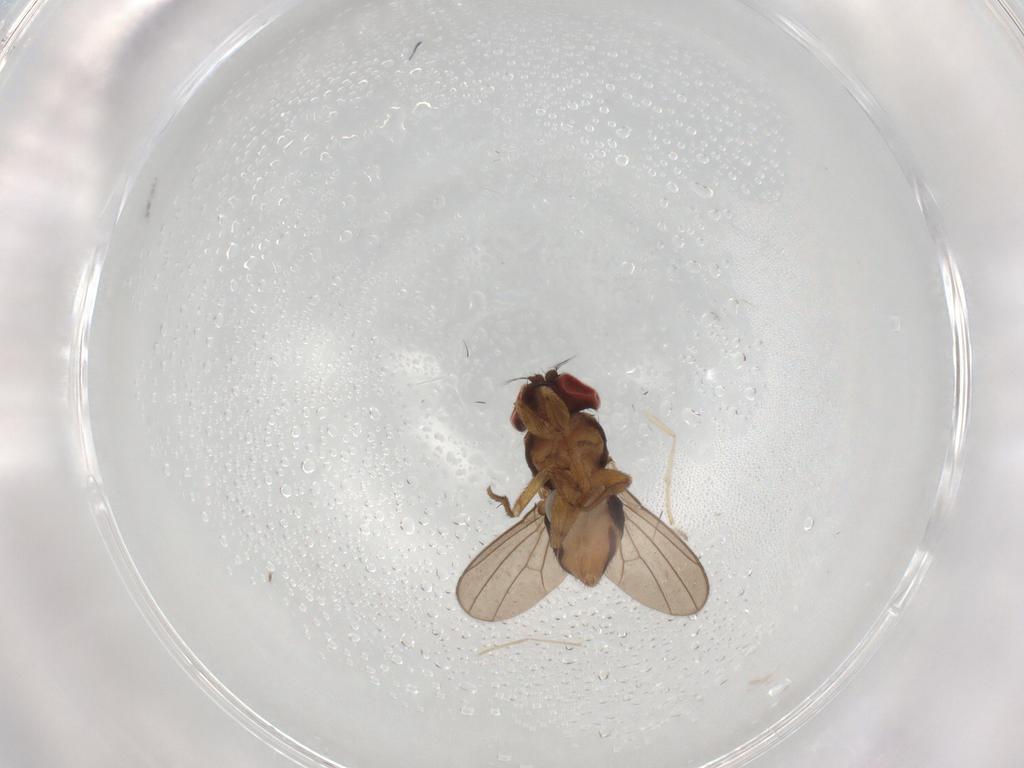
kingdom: Animalia
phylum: Arthropoda
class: Insecta
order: Diptera
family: Drosophilidae
